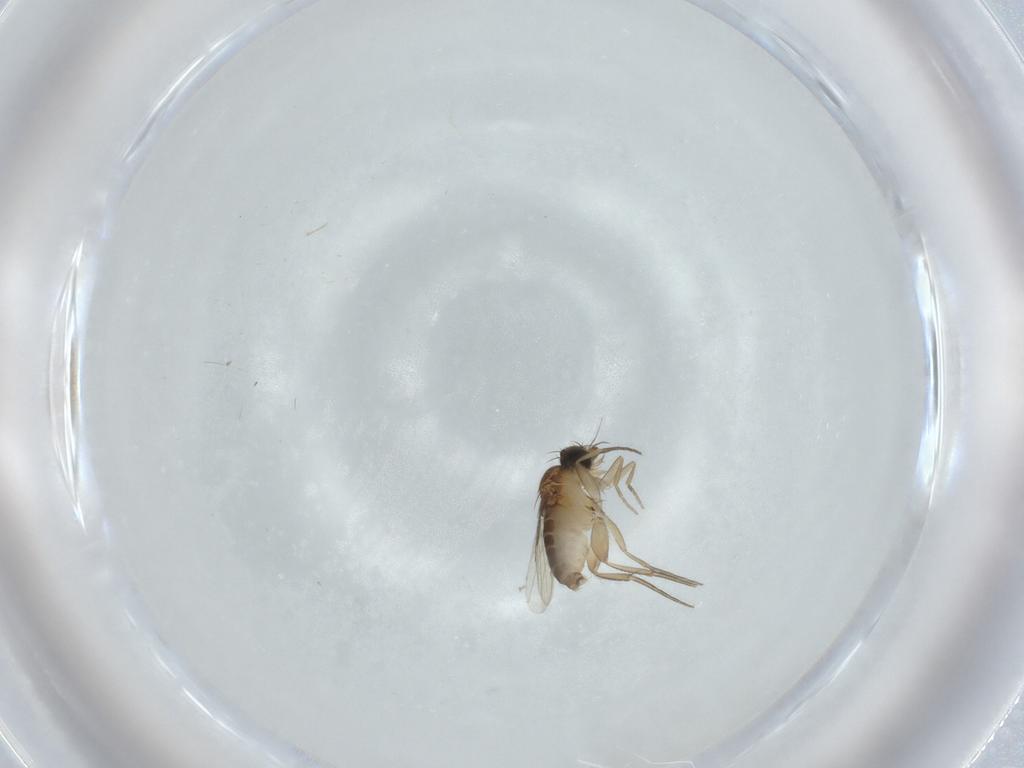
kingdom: Animalia
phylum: Arthropoda
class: Insecta
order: Diptera
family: Phoridae
